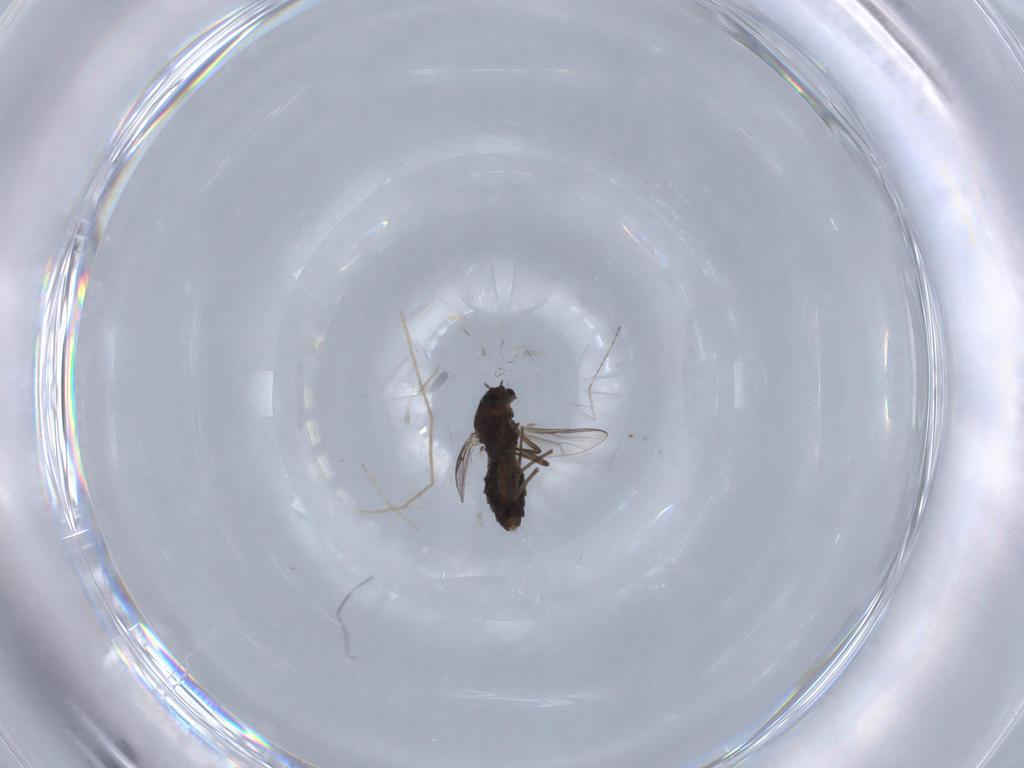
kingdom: Animalia
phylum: Arthropoda
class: Insecta
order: Diptera
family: Chironomidae
